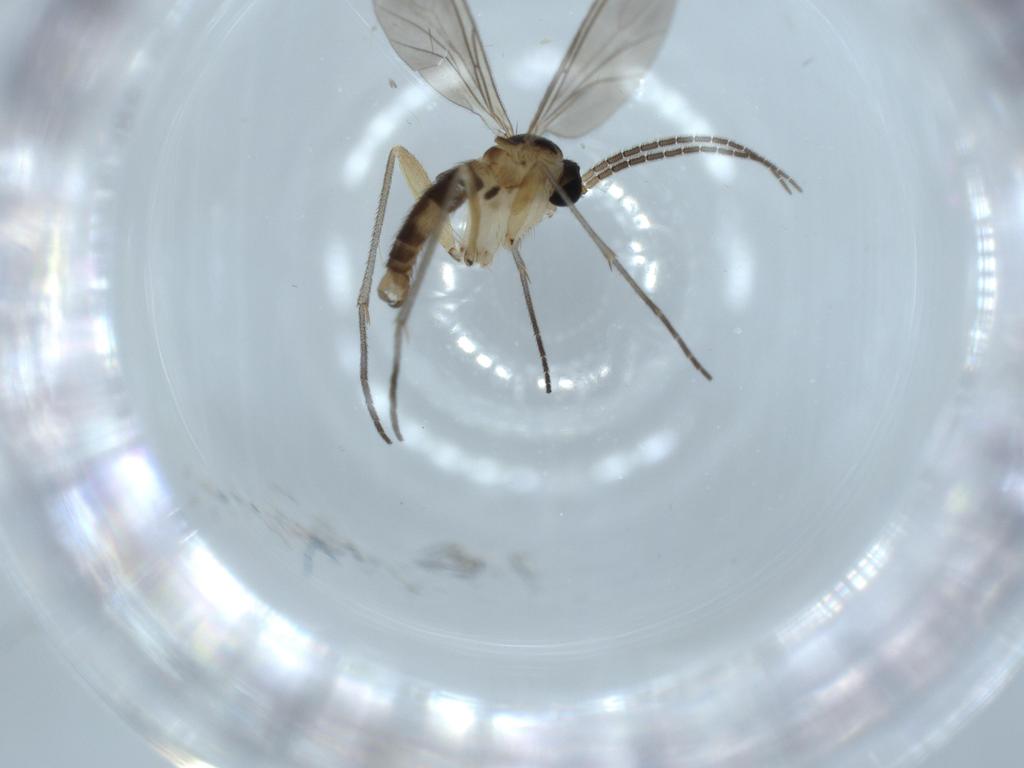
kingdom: Animalia
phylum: Arthropoda
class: Insecta
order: Diptera
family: Sciaridae
